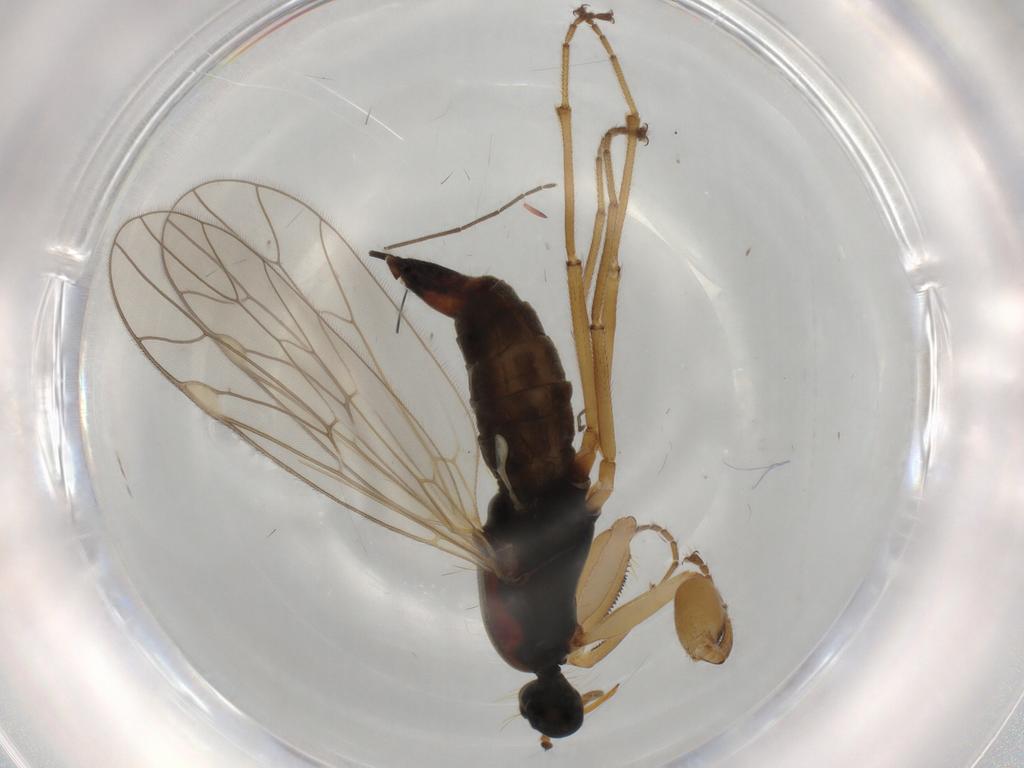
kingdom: Animalia
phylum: Arthropoda
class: Insecta
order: Diptera
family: Empididae
